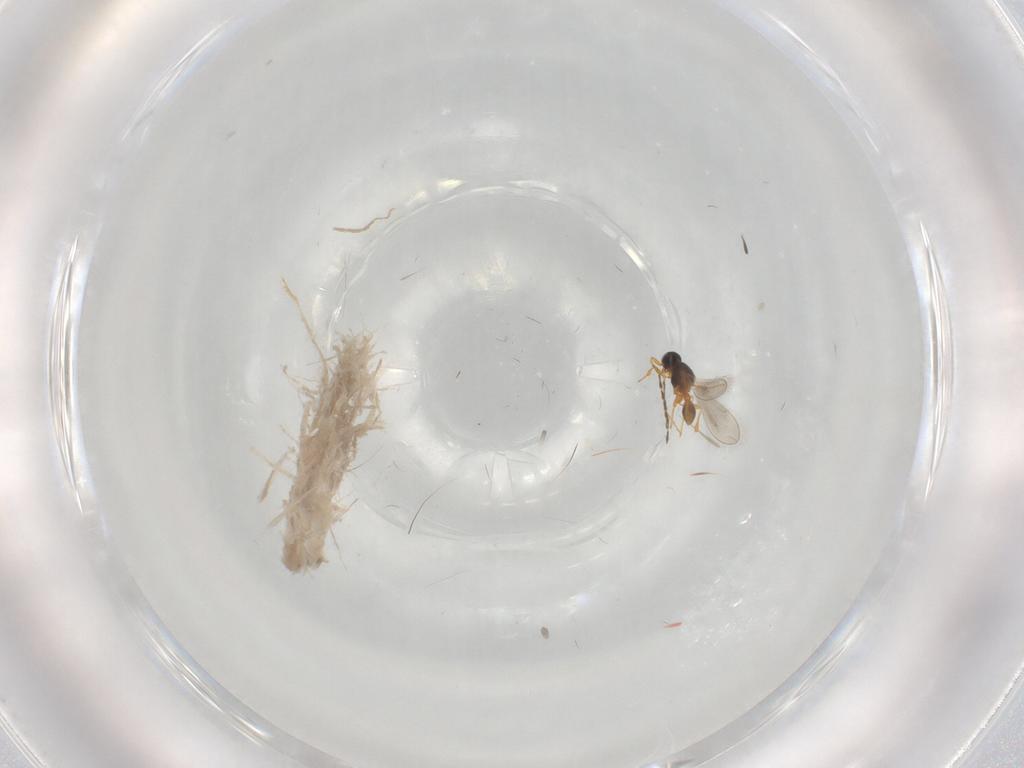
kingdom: Animalia
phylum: Arthropoda
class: Insecta
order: Hymenoptera
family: Platygastridae
